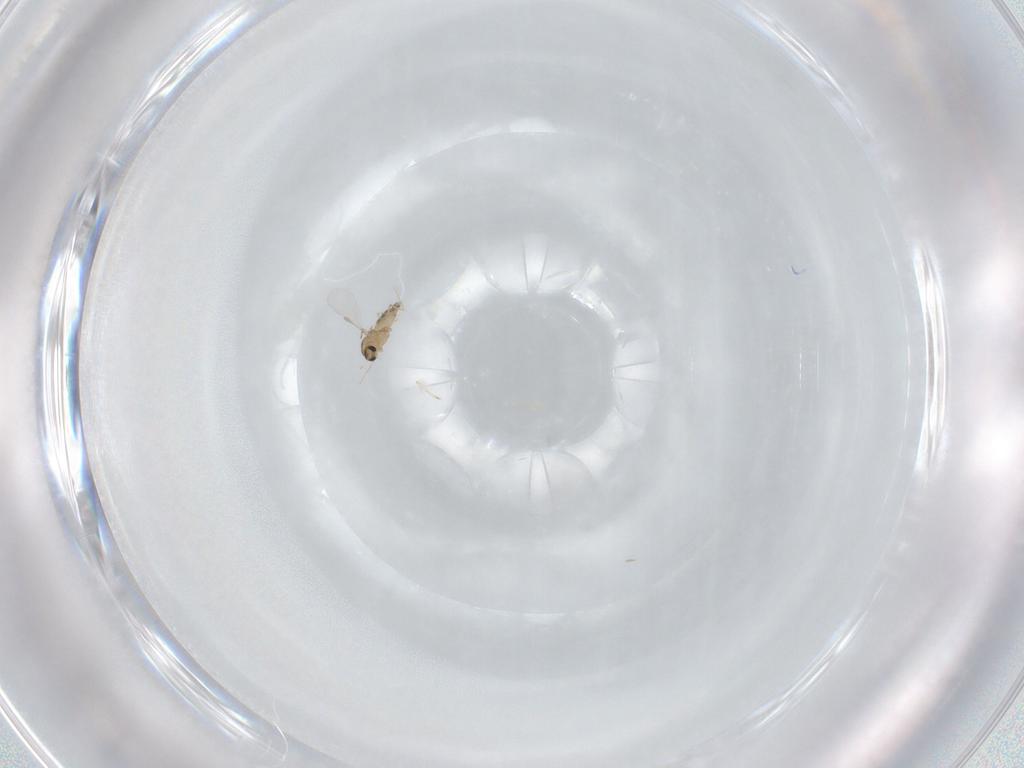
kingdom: Animalia
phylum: Arthropoda
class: Insecta
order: Diptera
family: Chironomidae
